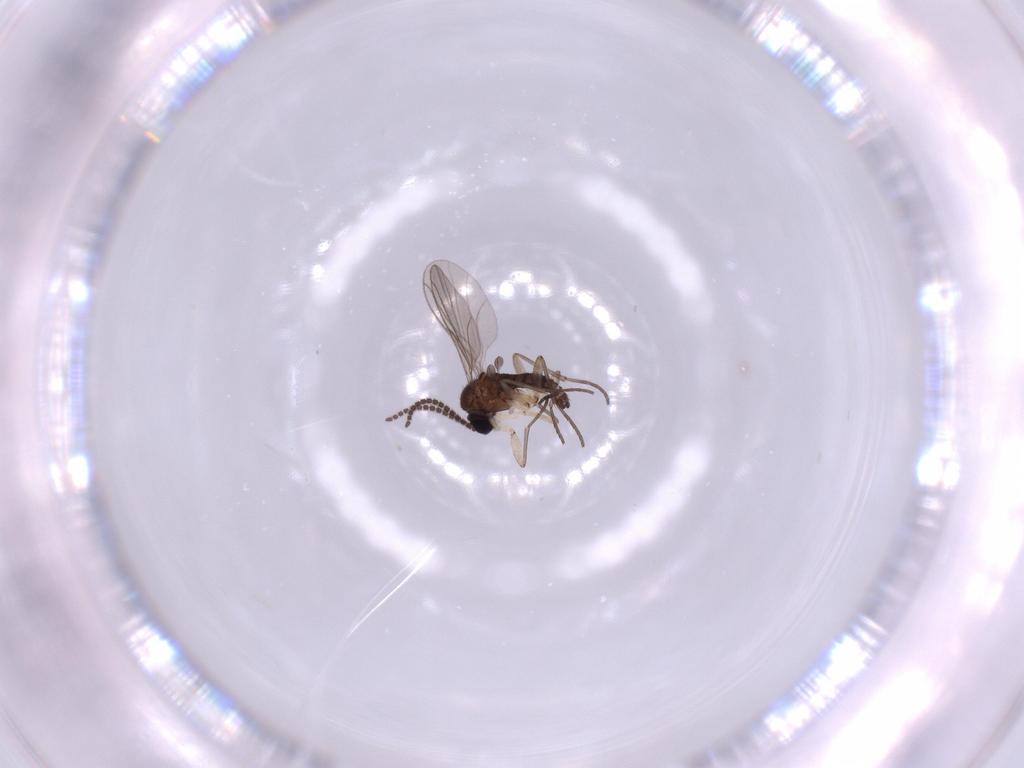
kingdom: Animalia
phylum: Arthropoda
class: Insecta
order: Diptera
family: Sciaridae
